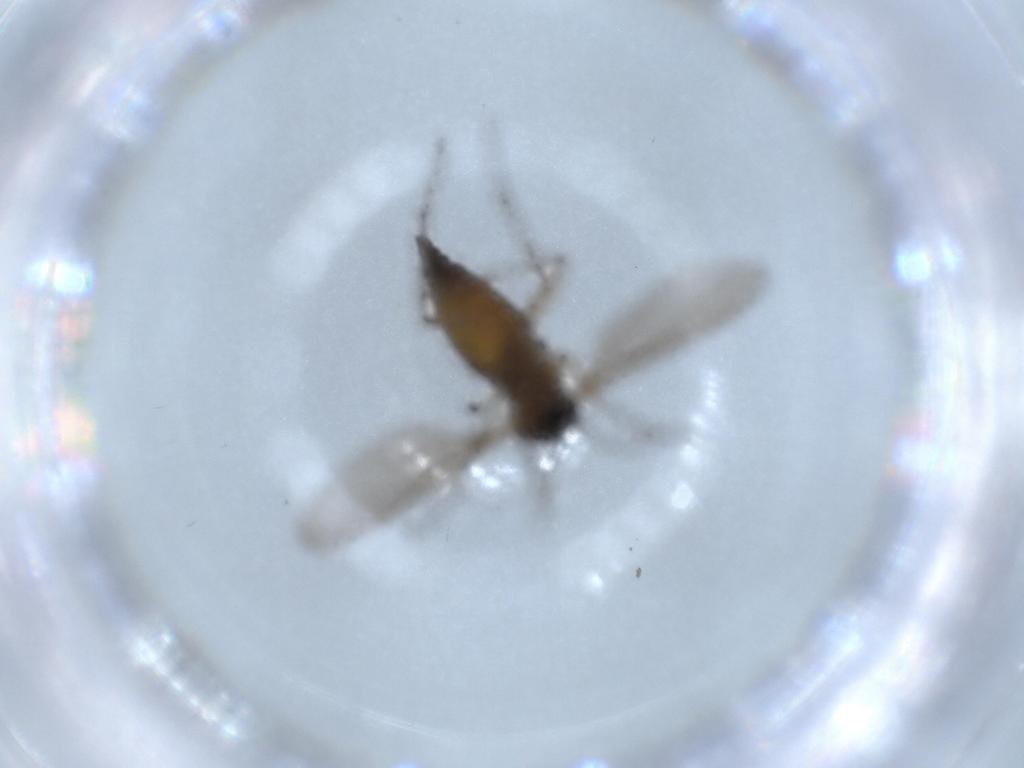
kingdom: Animalia
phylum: Arthropoda
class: Insecta
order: Diptera
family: Sciaridae
